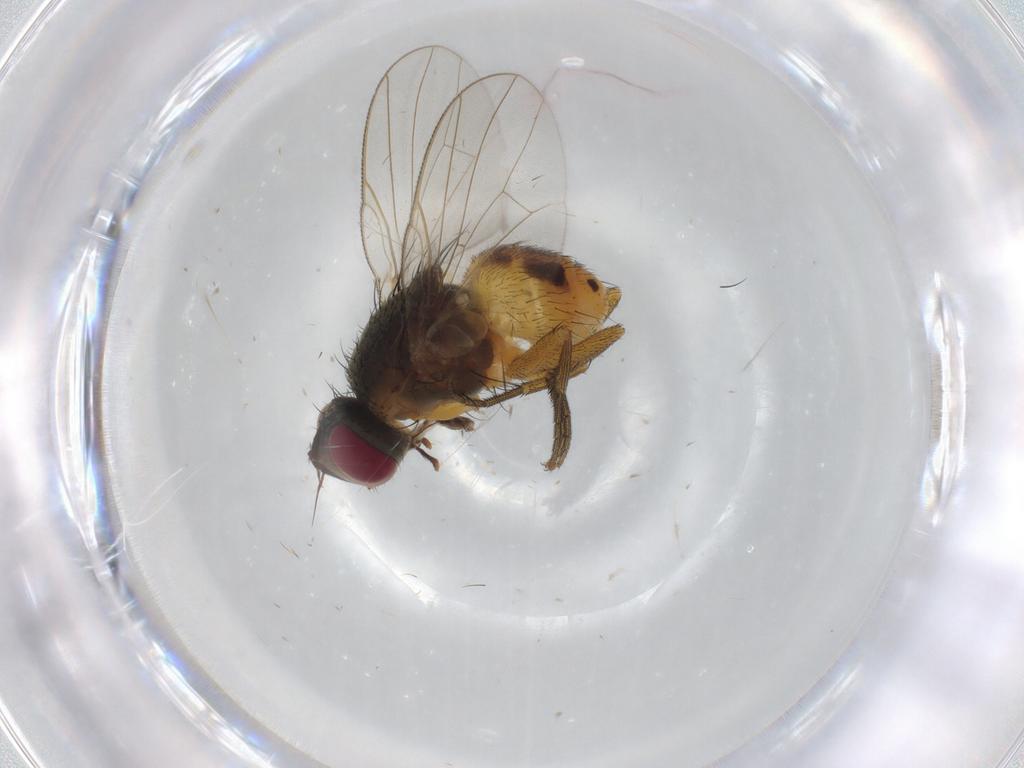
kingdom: Animalia
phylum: Arthropoda
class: Insecta
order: Diptera
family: Muscidae
